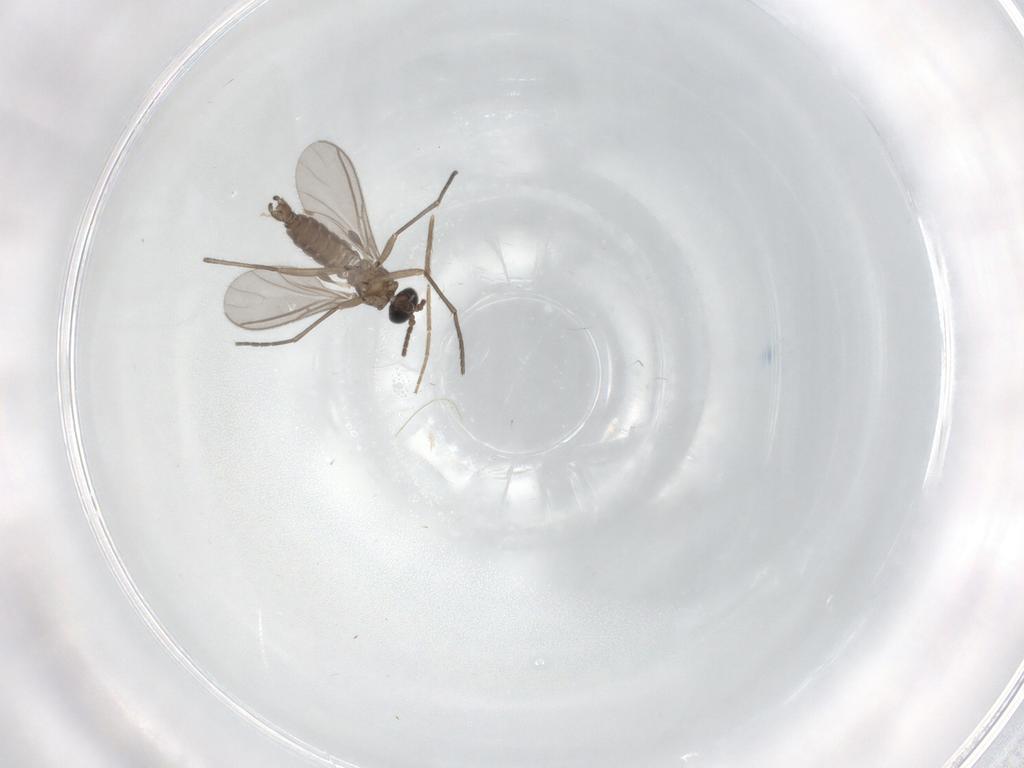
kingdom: Animalia
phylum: Arthropoda
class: Insecta
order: Diptera
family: Sciaridae
